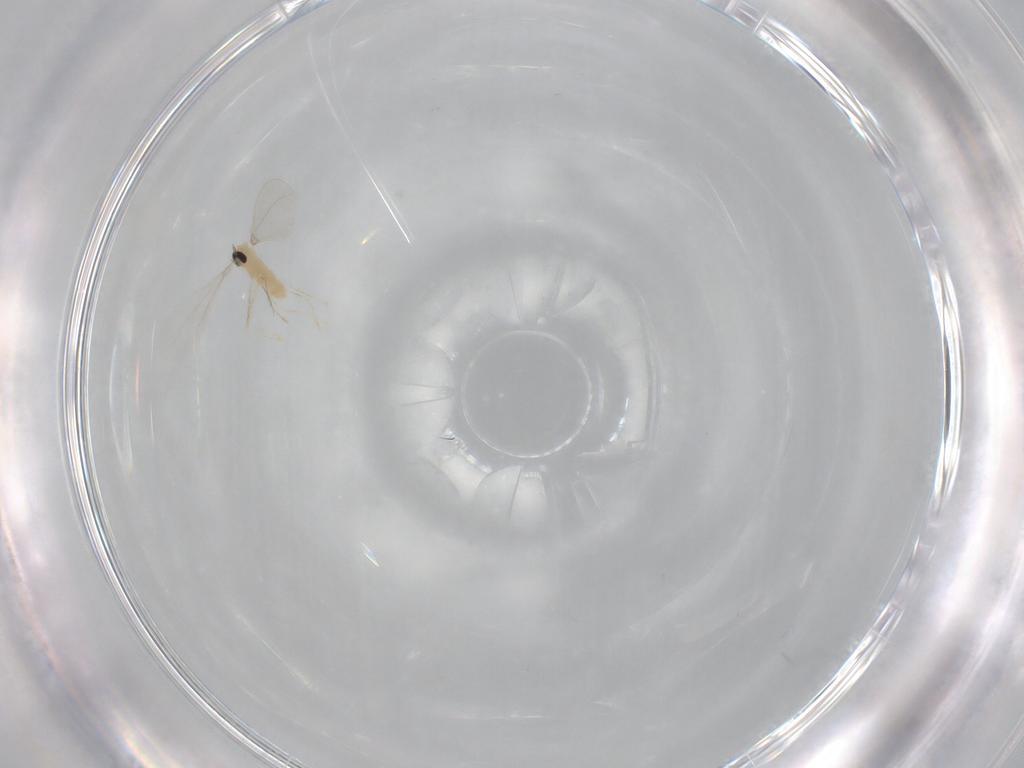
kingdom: Animalia
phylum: Arthropoda
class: Insecta
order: Diptera
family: Cecidomyiidae
